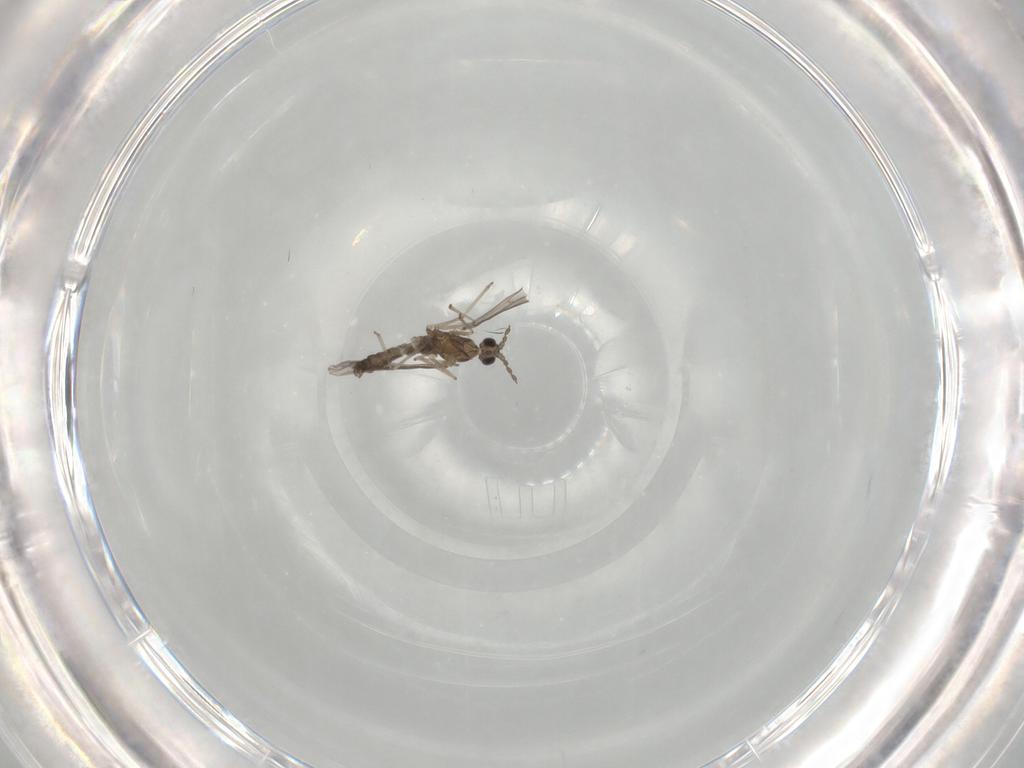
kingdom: Animalia
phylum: Arthropoda
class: Insecta
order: Diptera
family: Ceratopogonidae
